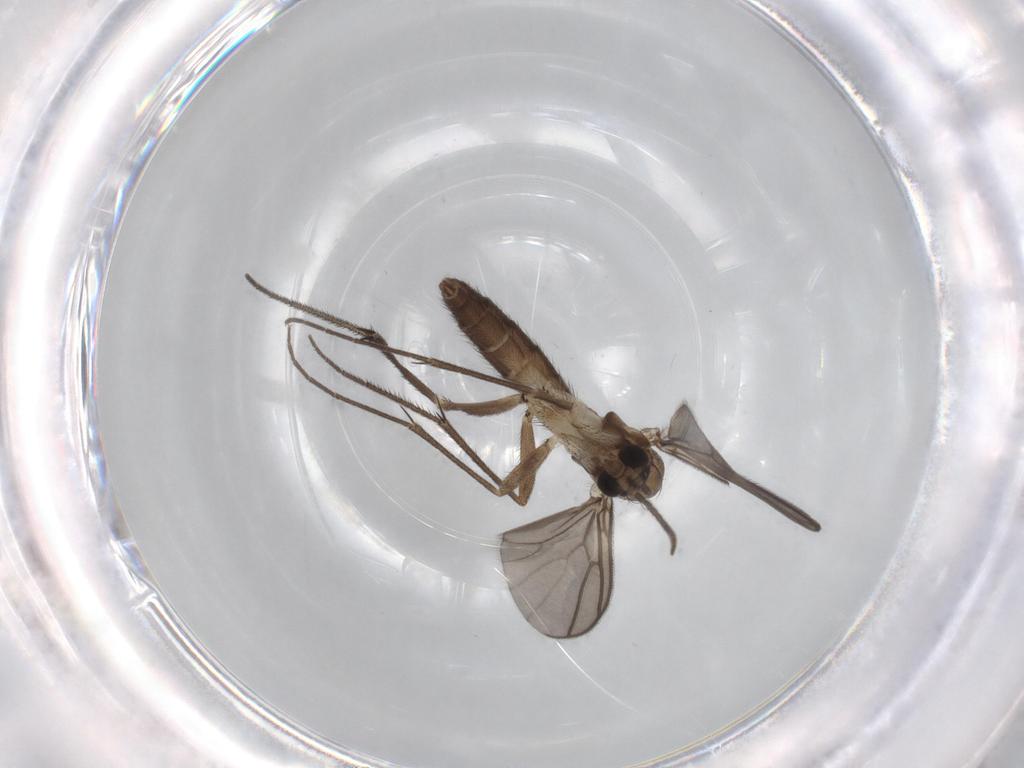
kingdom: Animalia
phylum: Arthropoda
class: Insecta
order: Diptera
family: Mycetophilidae
